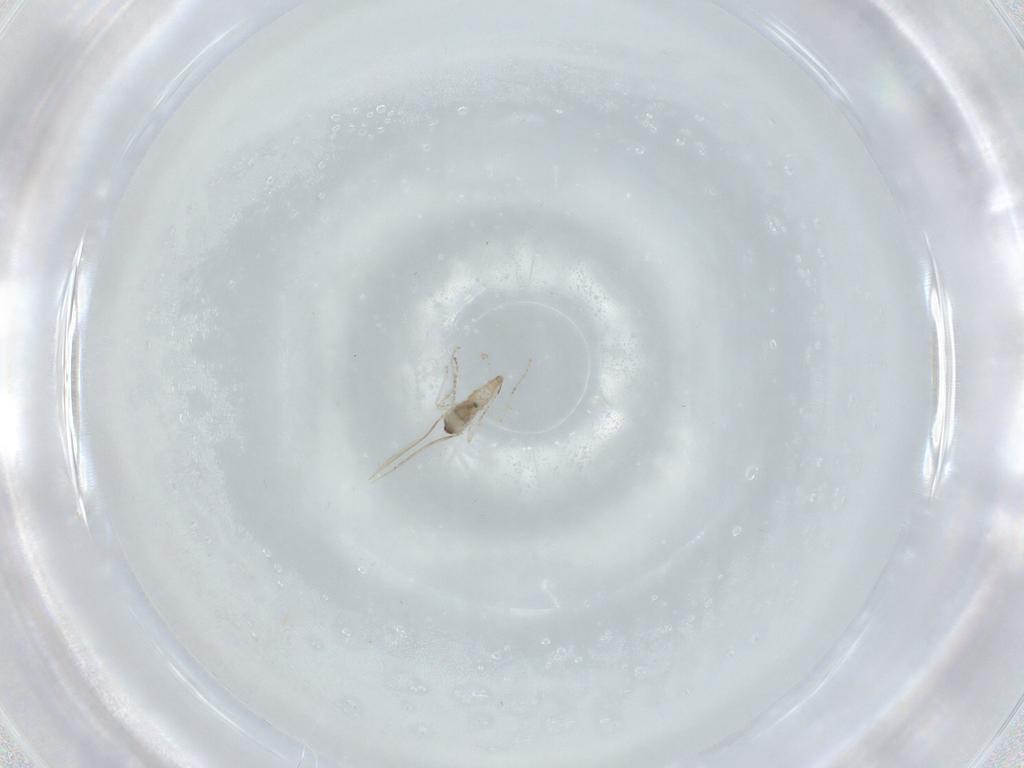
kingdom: Animalia
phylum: Arthropoda
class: Insecta
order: Diptera
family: Cecidomyiidae
